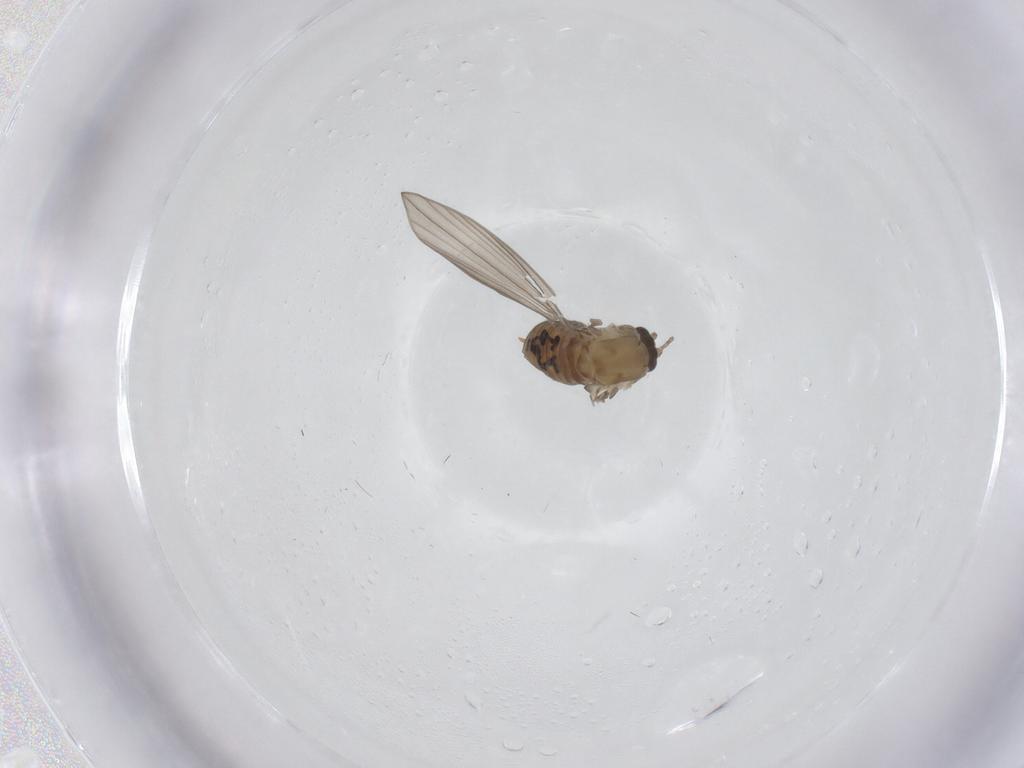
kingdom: Animalia
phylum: Arthropoda
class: Insecta
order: Diptera
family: Psychodidae
